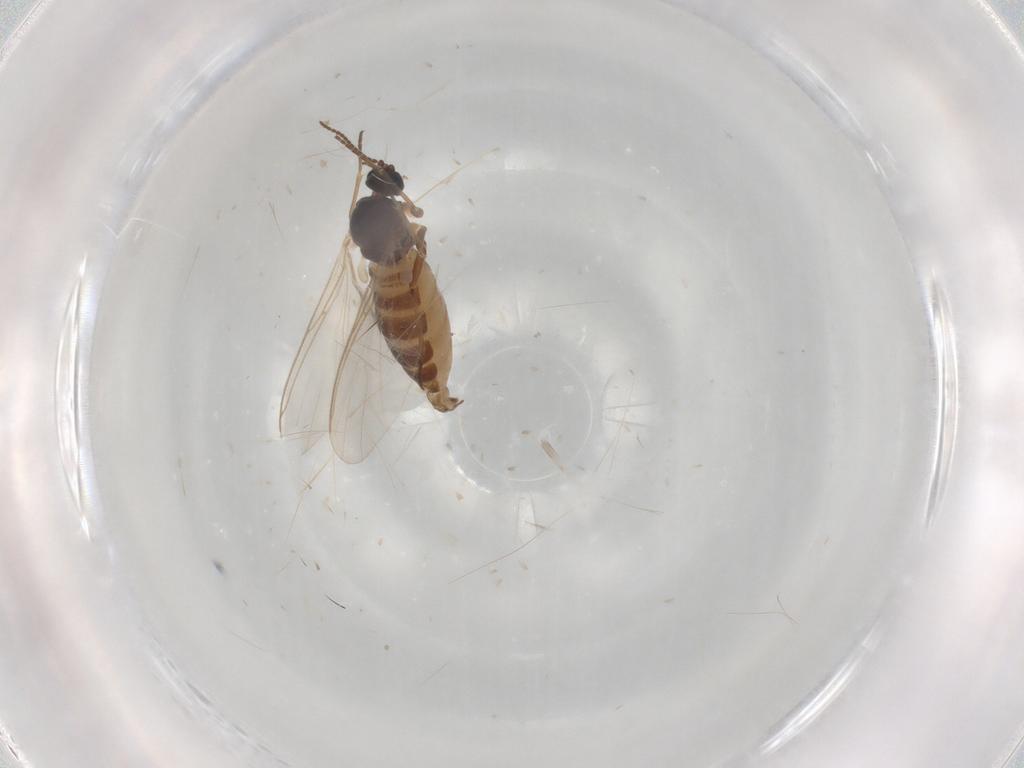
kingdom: Animalia
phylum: Arthropoda
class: Insecta
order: Diptera
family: Sciaridae
